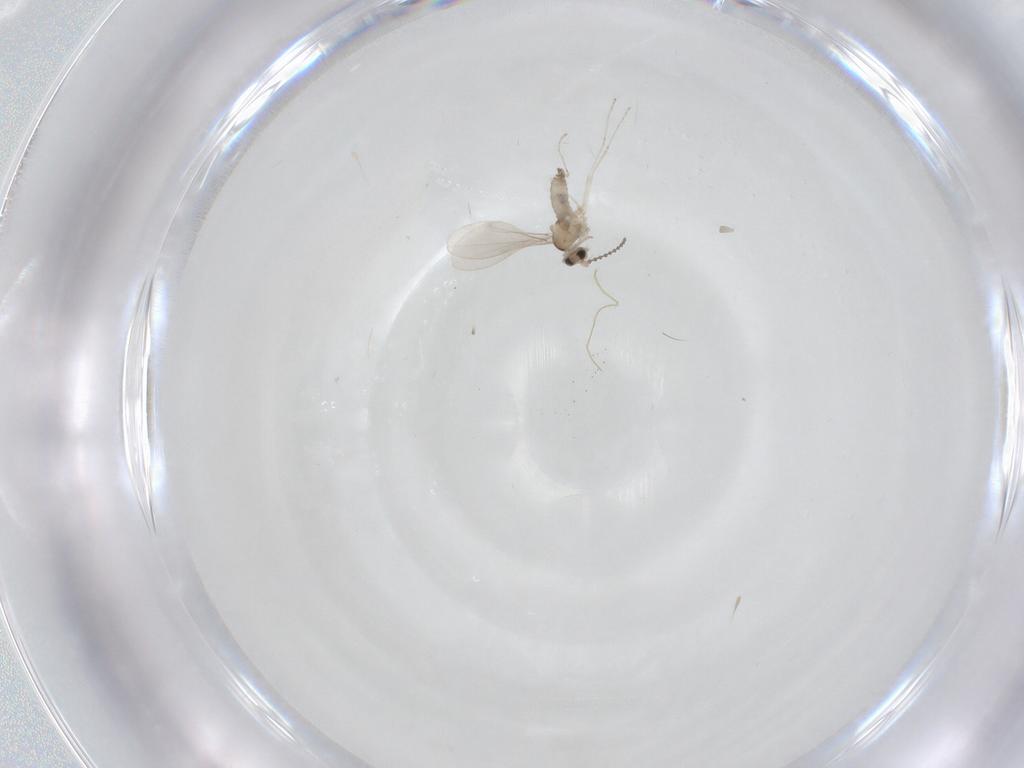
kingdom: Animalia
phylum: Arthropoda
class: Insecta
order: Diptera
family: Cecidomyiidae
